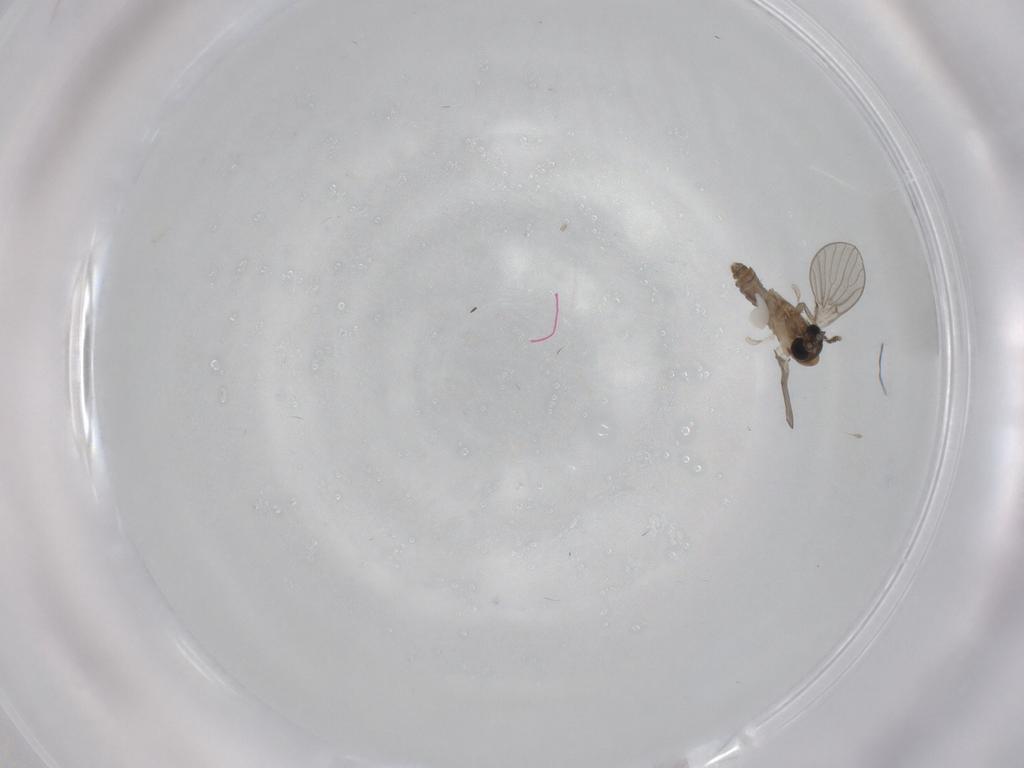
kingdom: Animalia
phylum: Arthropoda
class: Insecta
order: Diptera
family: Psychodidae
